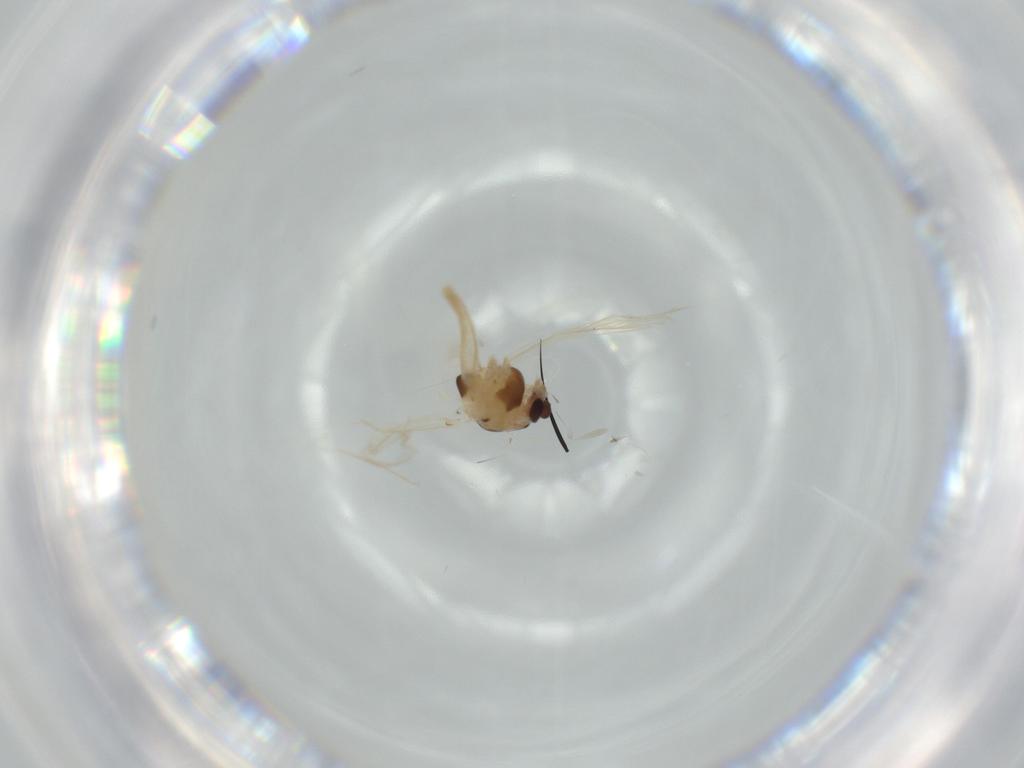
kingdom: Animalia
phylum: Arthropoda
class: Insecta
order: Diptera
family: Chironomidae
